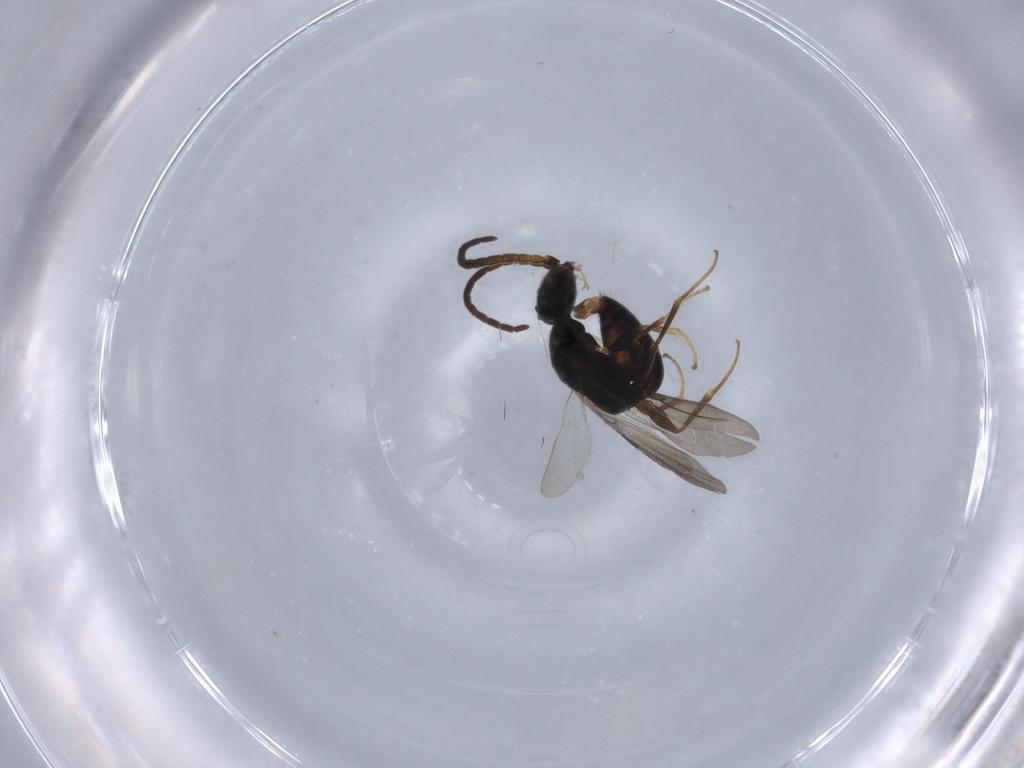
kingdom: Animalia
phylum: Arthropoda
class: Insecta
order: Hymenoptera
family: Bethylidae
